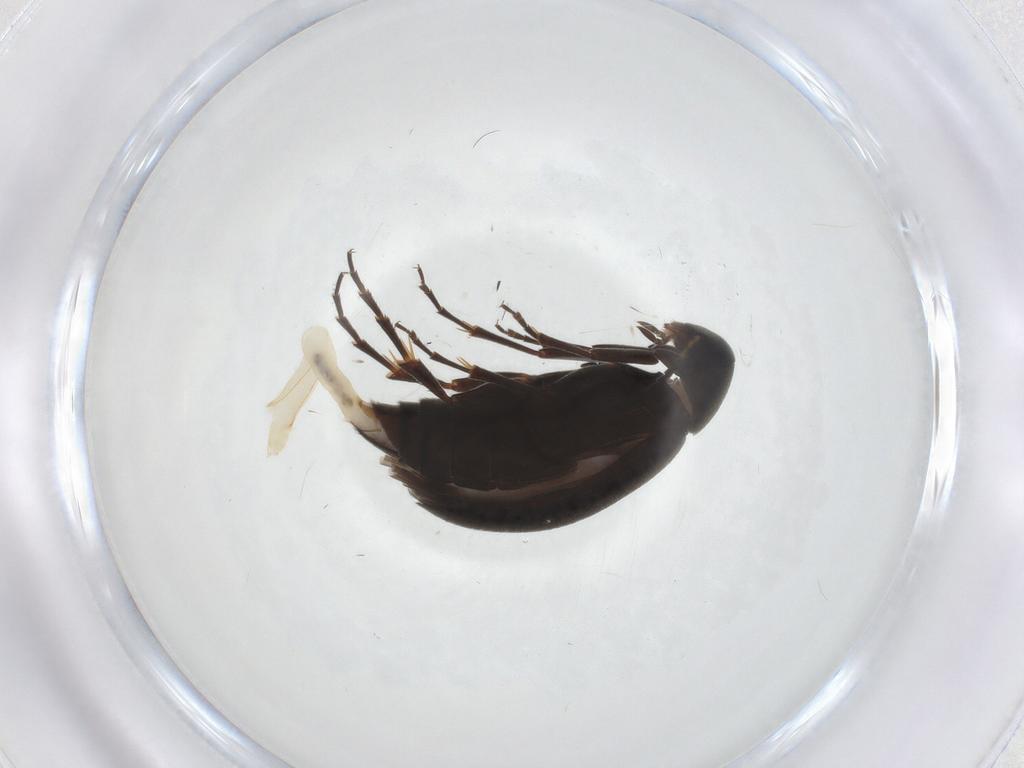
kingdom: Animalia
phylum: Arthropoda
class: Insecta
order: Coleoptera
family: Scraptiidae
